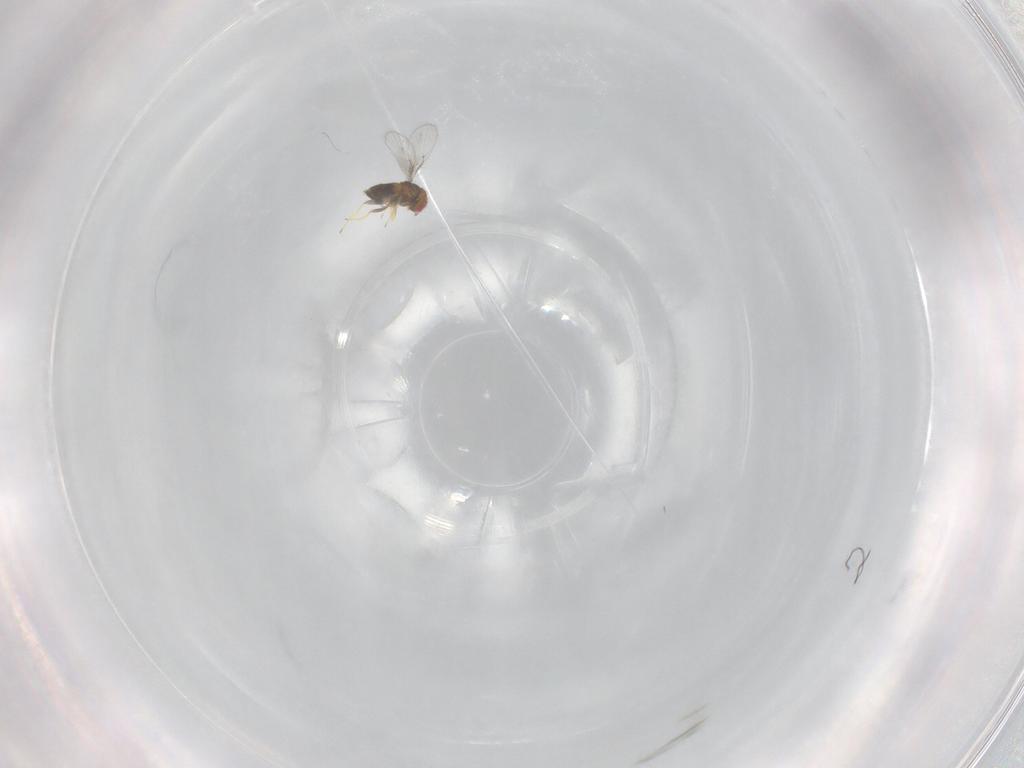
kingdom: Animalia
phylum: Arthropoda
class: Insecta
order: Hymenoptera
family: Trichogrammatidae
